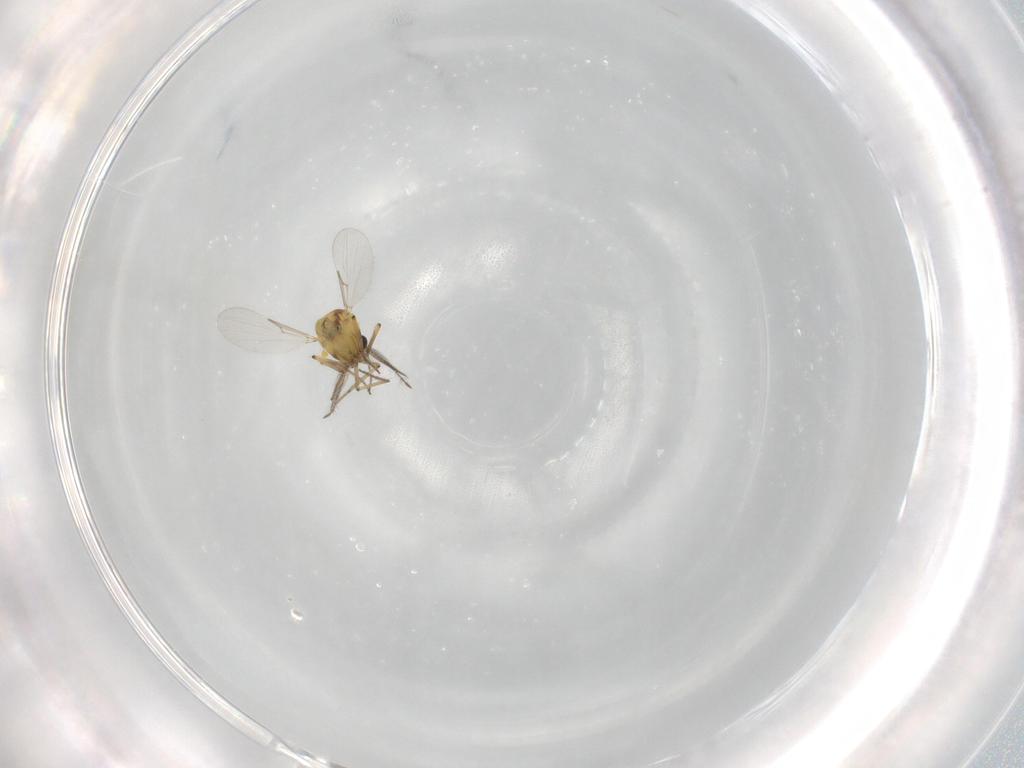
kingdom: Animalia
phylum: Arthropoda
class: Insecta
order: Diptera
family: Ceratopogonidae
